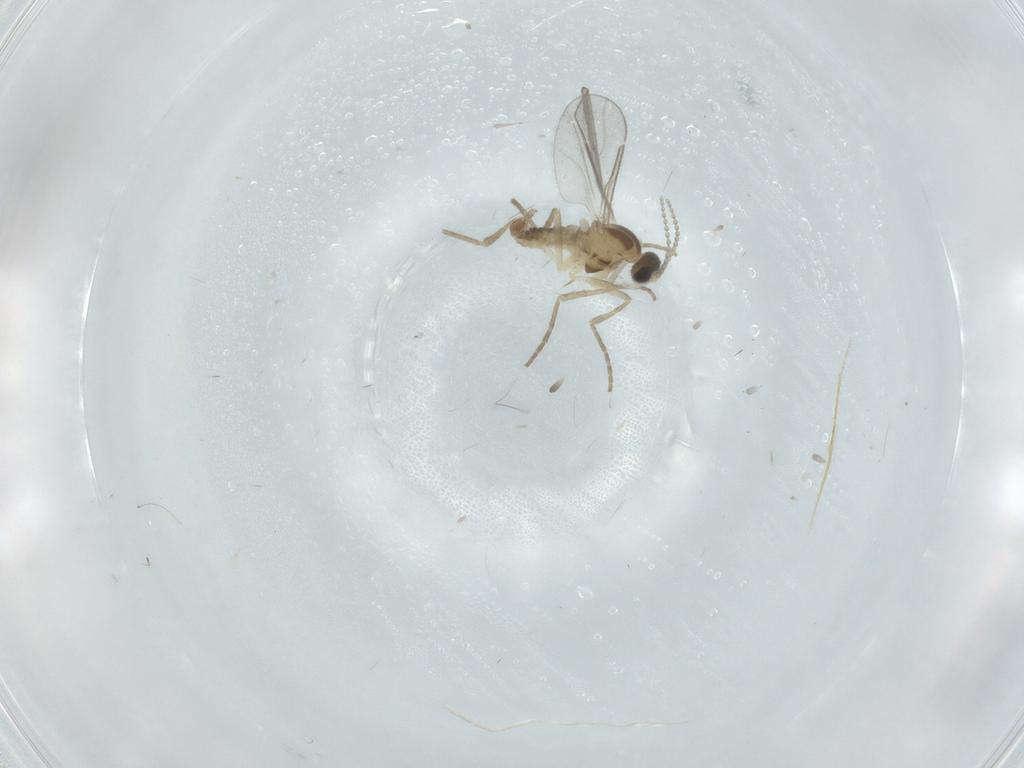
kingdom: Animalia
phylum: Arthropoda
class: Insecta
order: Diptera
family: Cecidomyiidae
